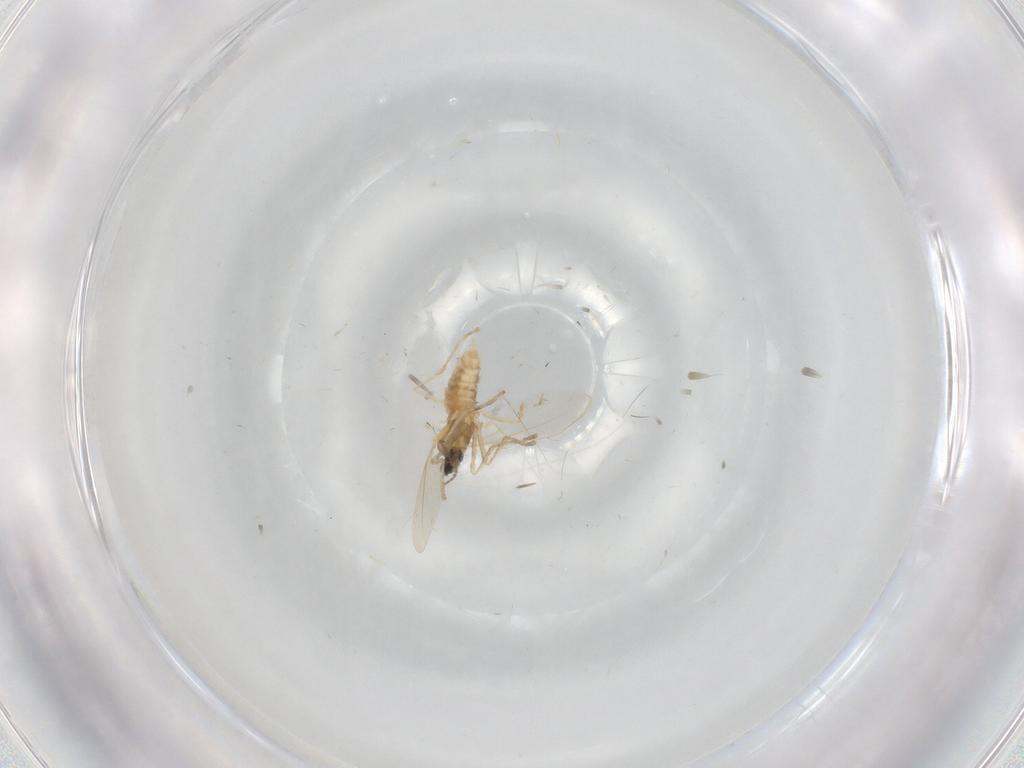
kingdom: Animalia
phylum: Arthropoda
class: Insecta
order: Diptera
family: Cecidomyiidae
